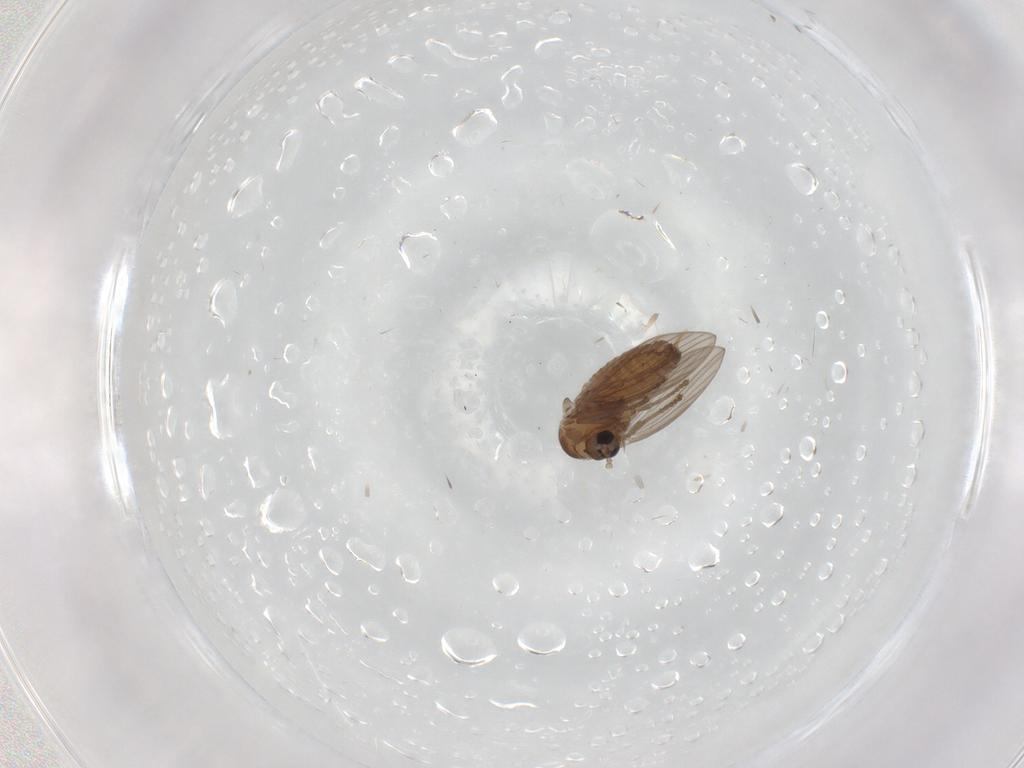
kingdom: Animalia
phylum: Arthropoda
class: Insecta
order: Diptera
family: Psychodidae
